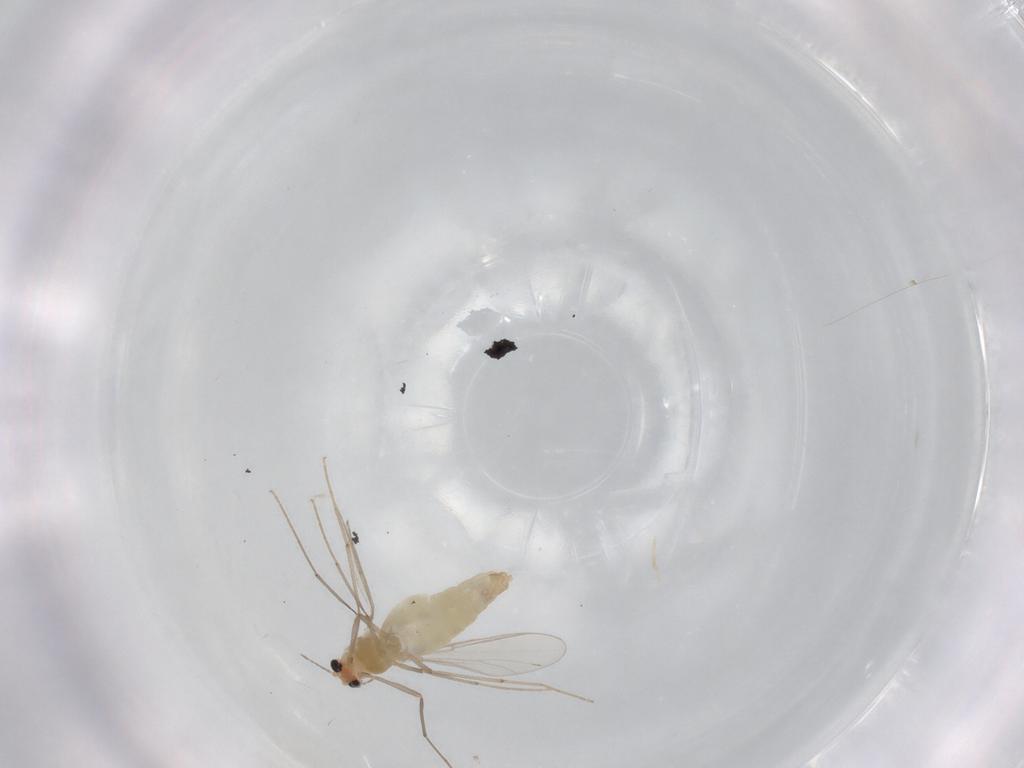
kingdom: Animalia
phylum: Arthropoda
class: Insecta
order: Diptera
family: Chironomidae
